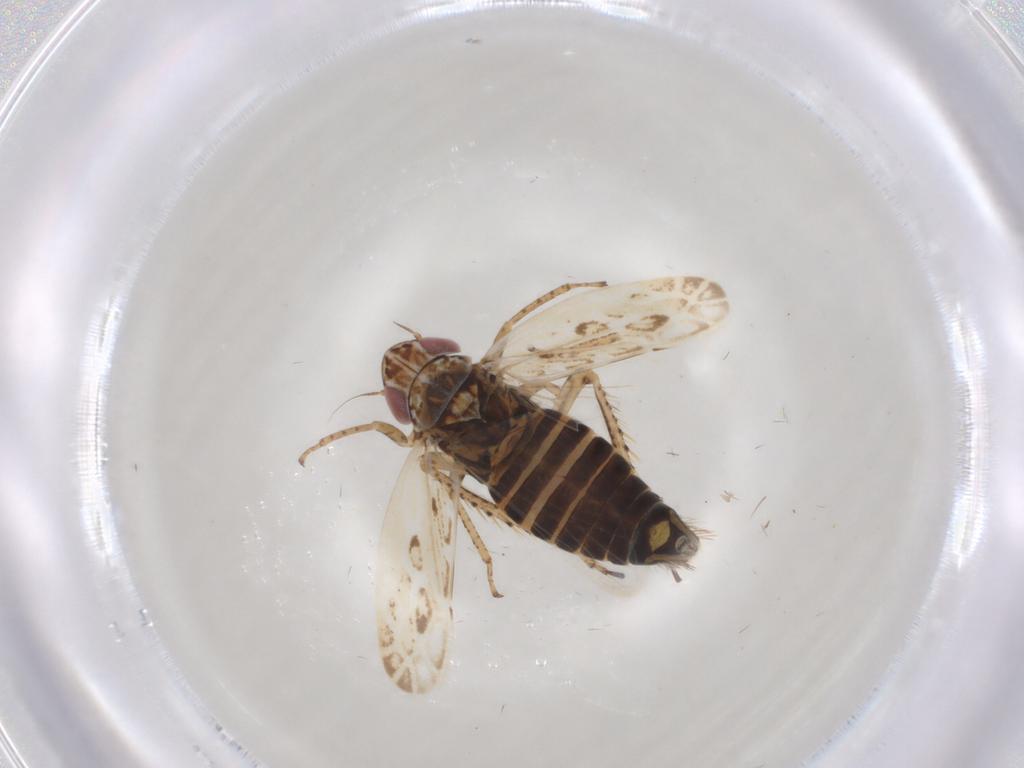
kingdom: Animalia
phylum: Arthropoda
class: Insecta
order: Hemiptera
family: Cicadellidae
